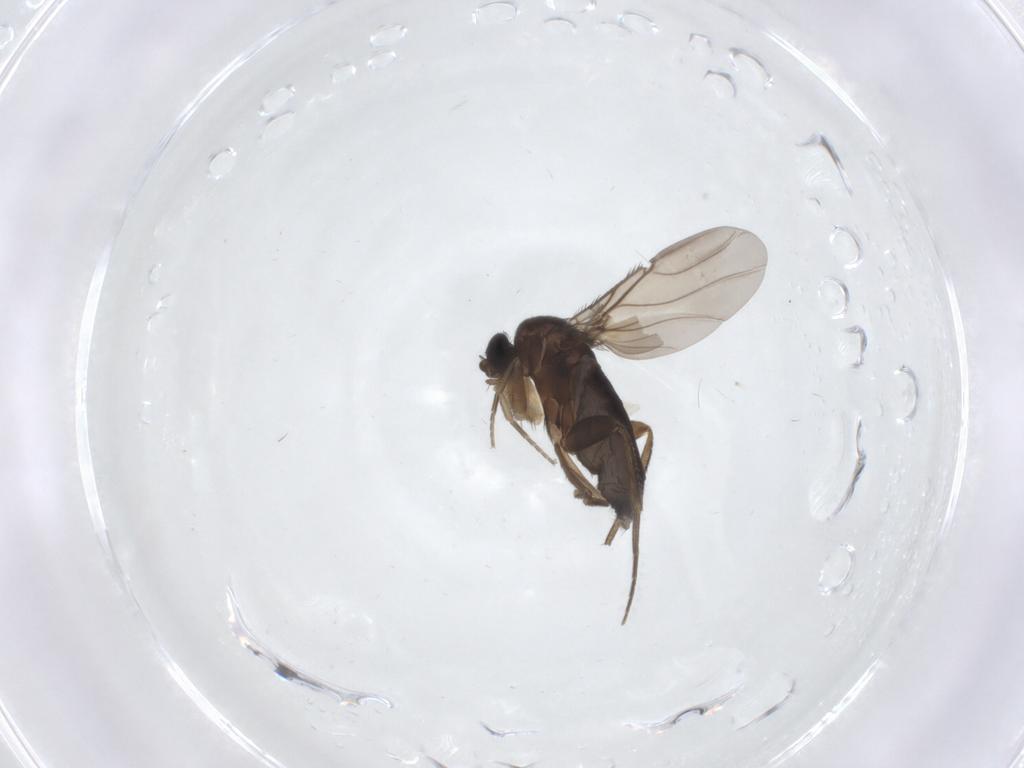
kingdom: Animalia
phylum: Arthropoda
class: Insecta
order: Diptera
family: Phoridae
